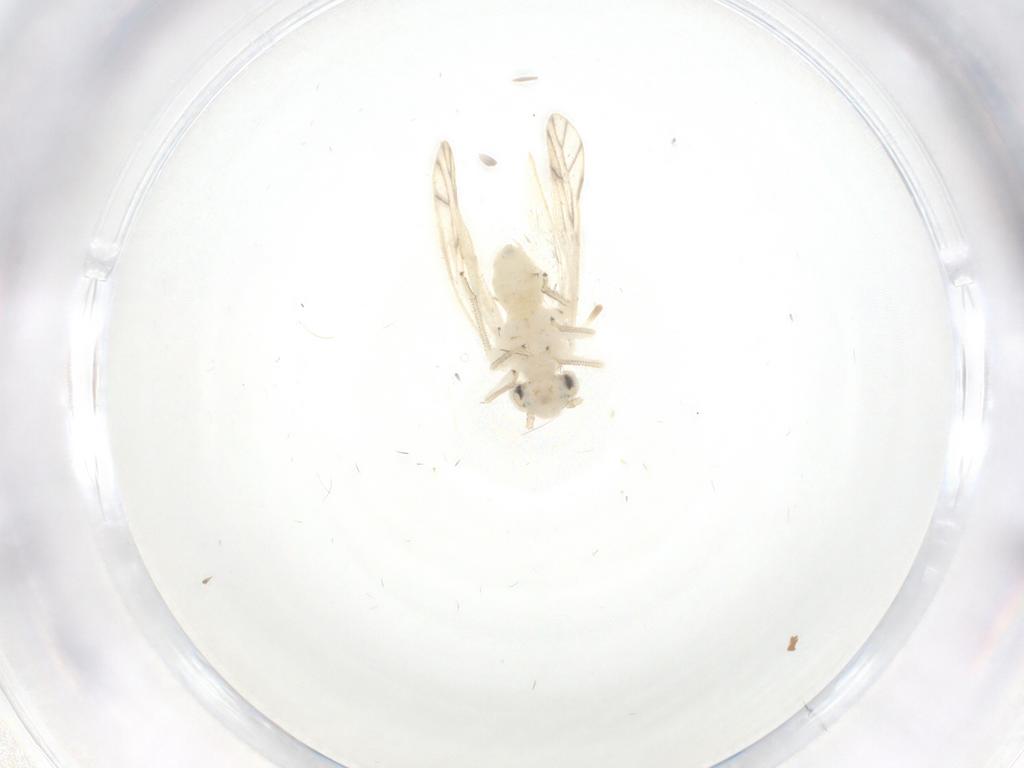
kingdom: Animalia
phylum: Arthropoda
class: Insecta
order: Psocodea
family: Caeciliusidae
